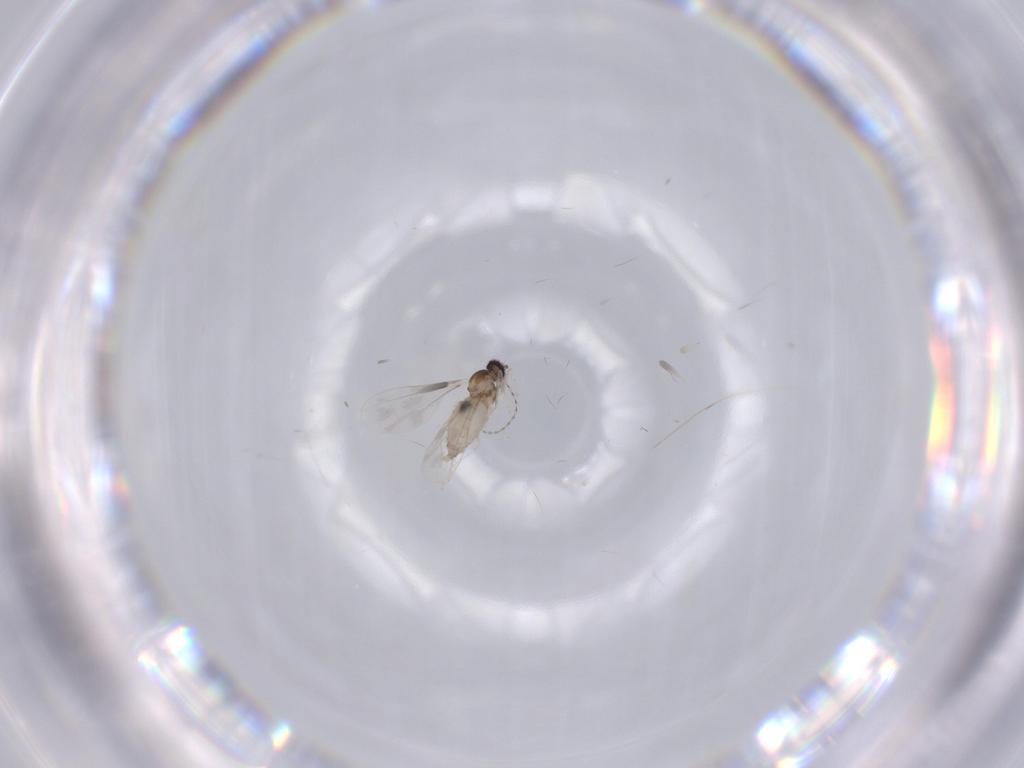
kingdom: Animalia
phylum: Arthropoda
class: Insecta
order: Diptera
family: Cecidomyiidae
